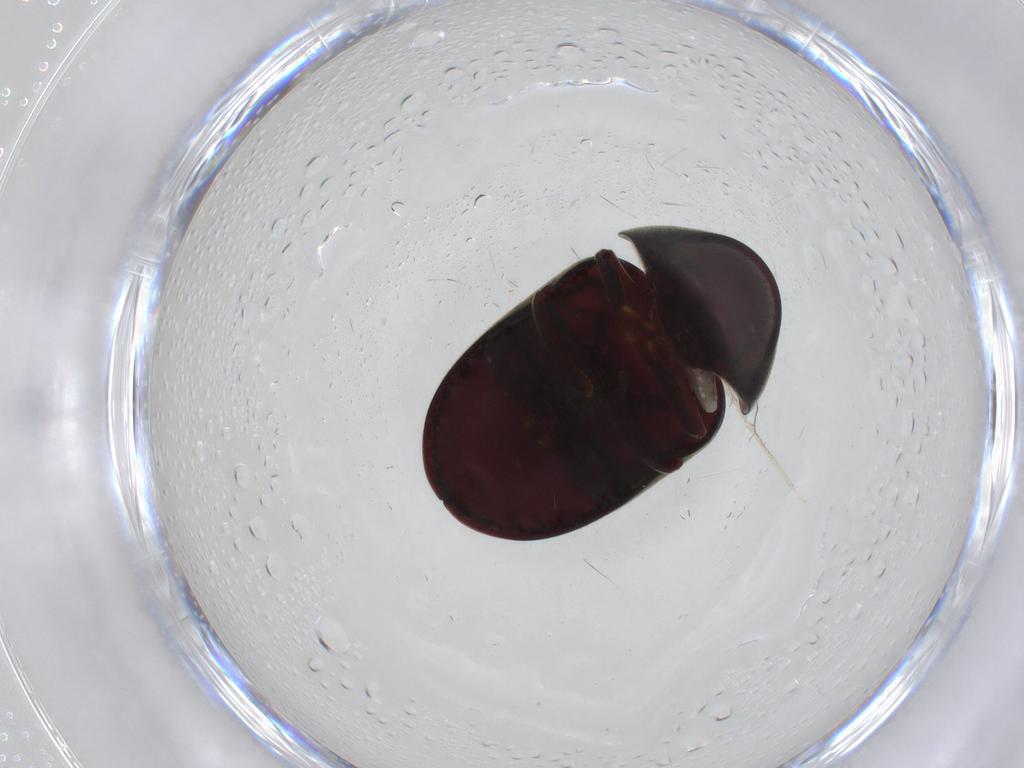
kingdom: Animalia
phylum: Arthropoda
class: Insecta
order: Coleoptera
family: Ptinidae
